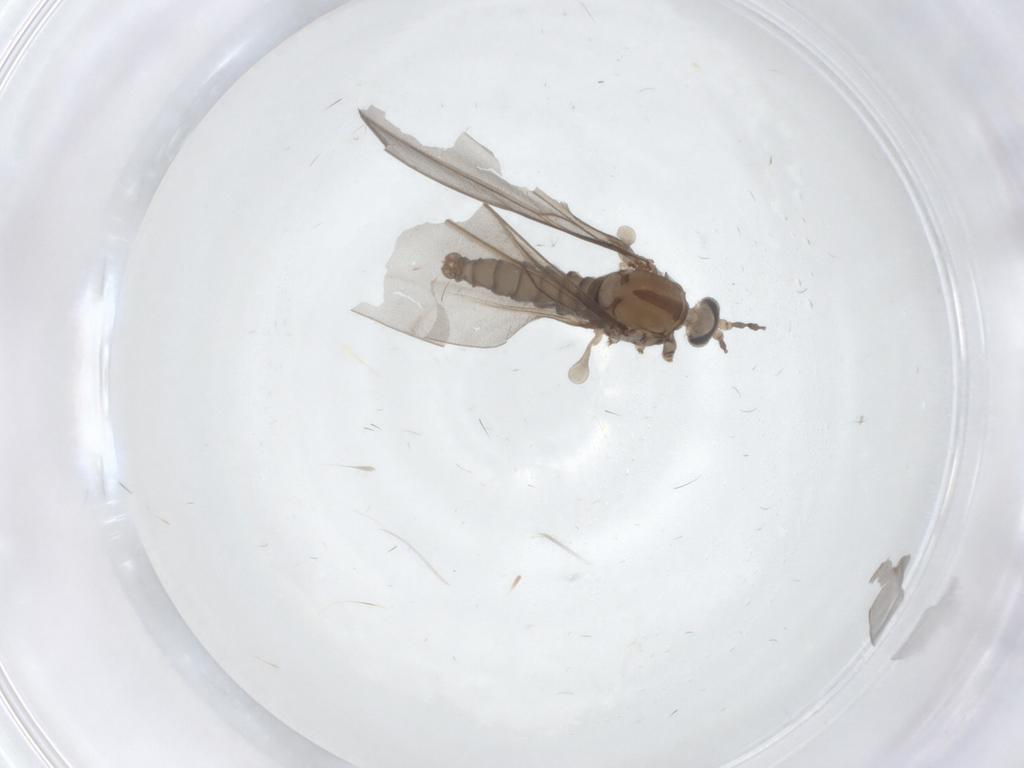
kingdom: Animalia
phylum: Arthropoda
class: Insecta
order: Diptera
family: Cecidomyiidae
